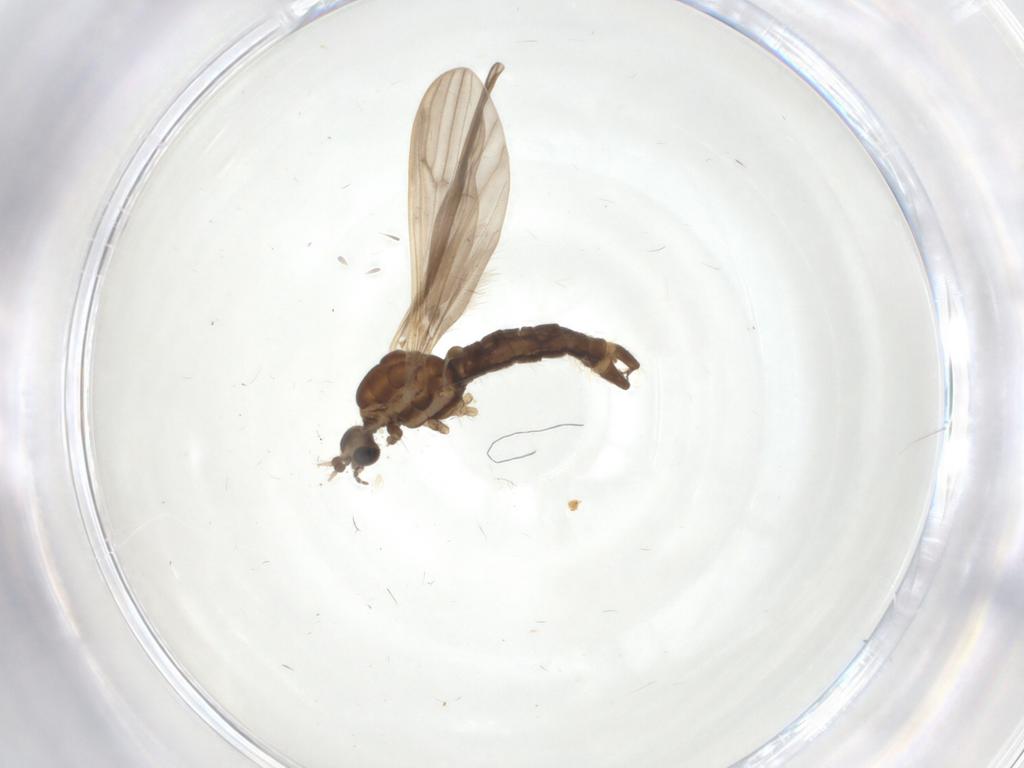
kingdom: Animalia
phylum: Arthropoda
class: Insecta
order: Diptera
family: Limoniidae
